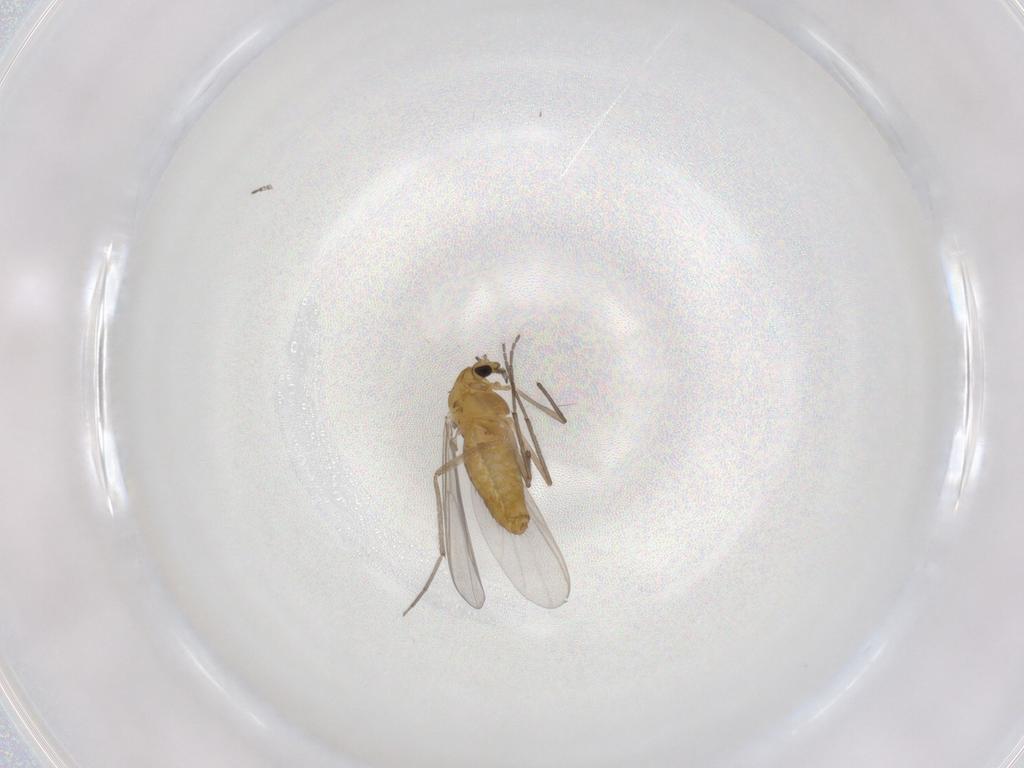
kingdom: Animalia
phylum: Arthropoda
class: Insecta
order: Diptera
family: Chironomidae
